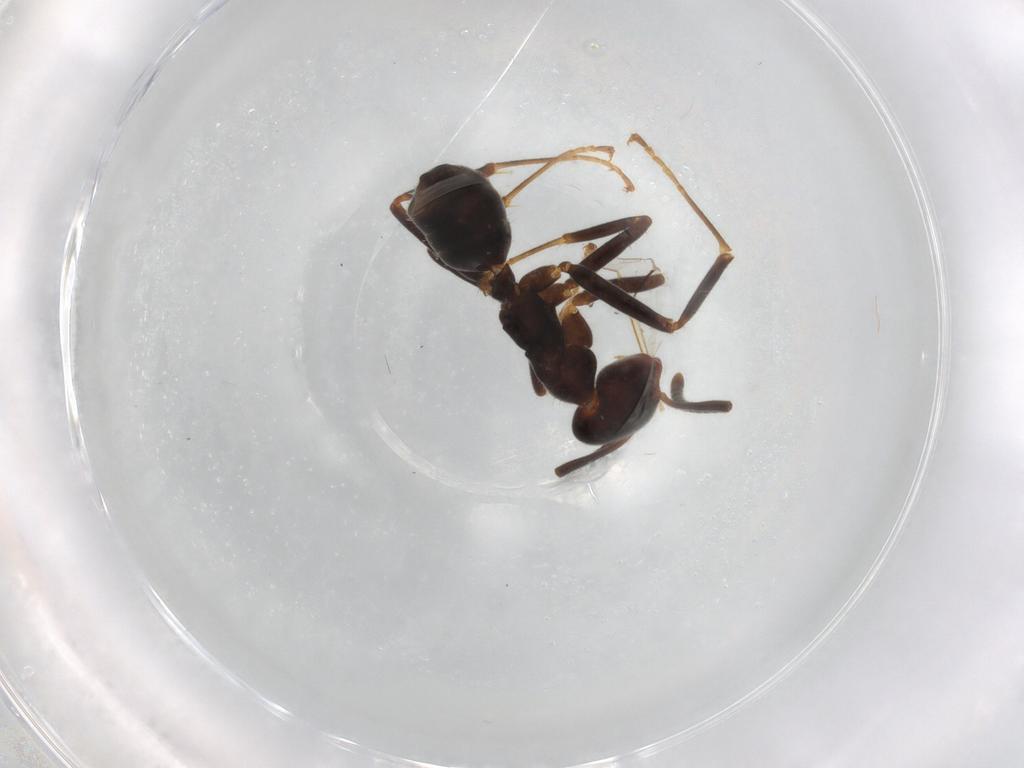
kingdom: Animalia
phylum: Arthropoda
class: Insecta
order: Hymenoptera
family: Formicidae
